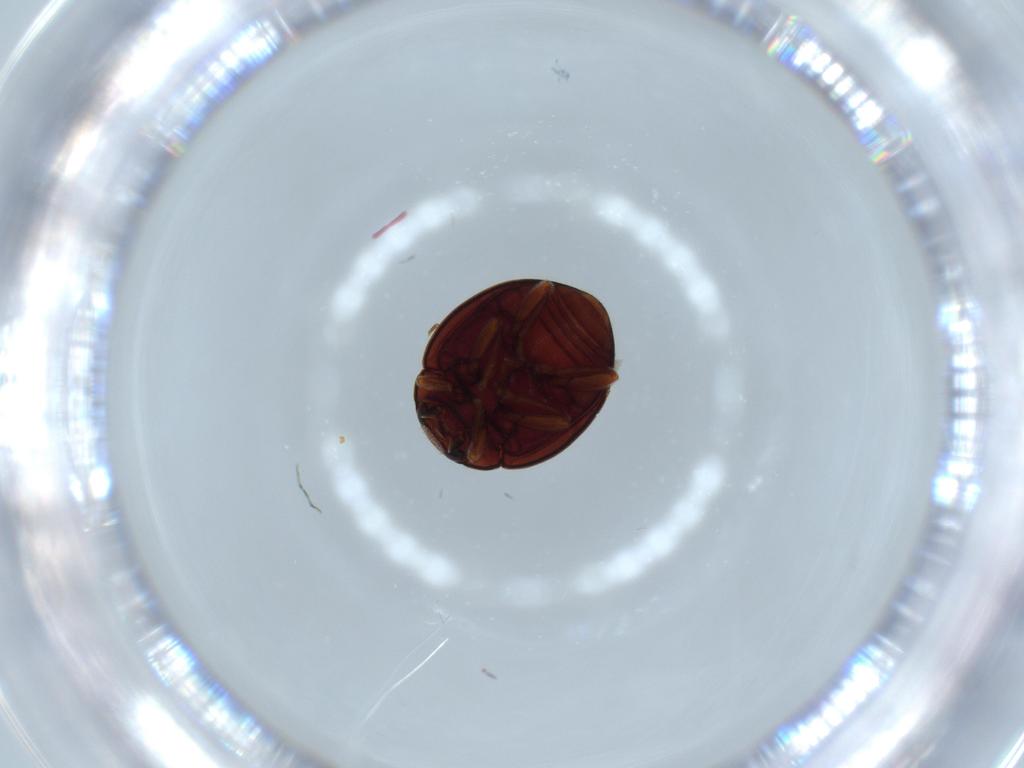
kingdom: Animalia
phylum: Arthropoda
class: Insecta
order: Coleoptera
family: Coccinellidae
